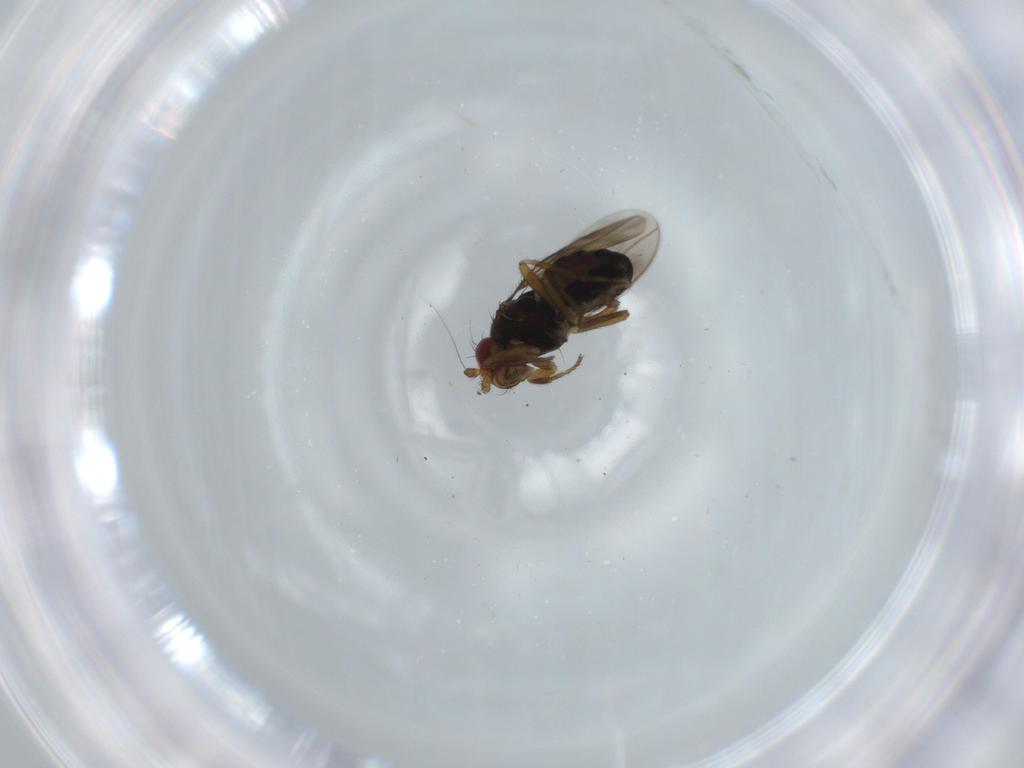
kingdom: Animalia
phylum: Arthropoda
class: Insecta
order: Diptera
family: Sphaeroceridae
